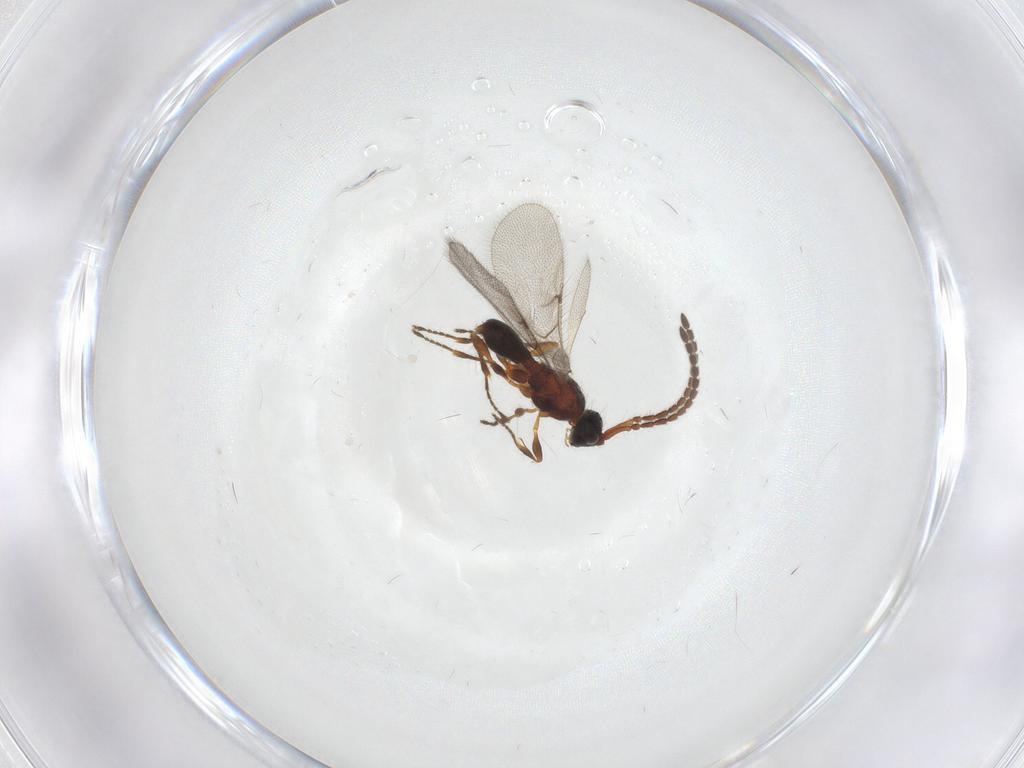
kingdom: Animalia
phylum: Arthropoda
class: Insecta
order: Hymenoptera
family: Diapriidae
